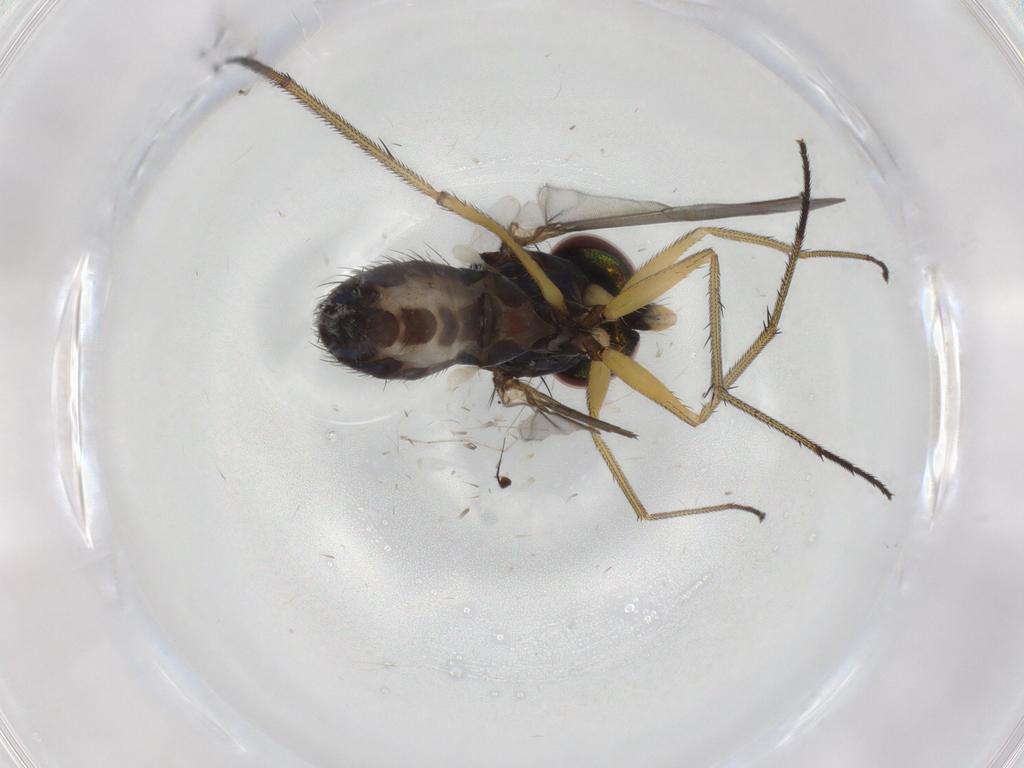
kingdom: Animalia
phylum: Arthropoda
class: Insecta
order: Diptera
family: Dolichopodidae
